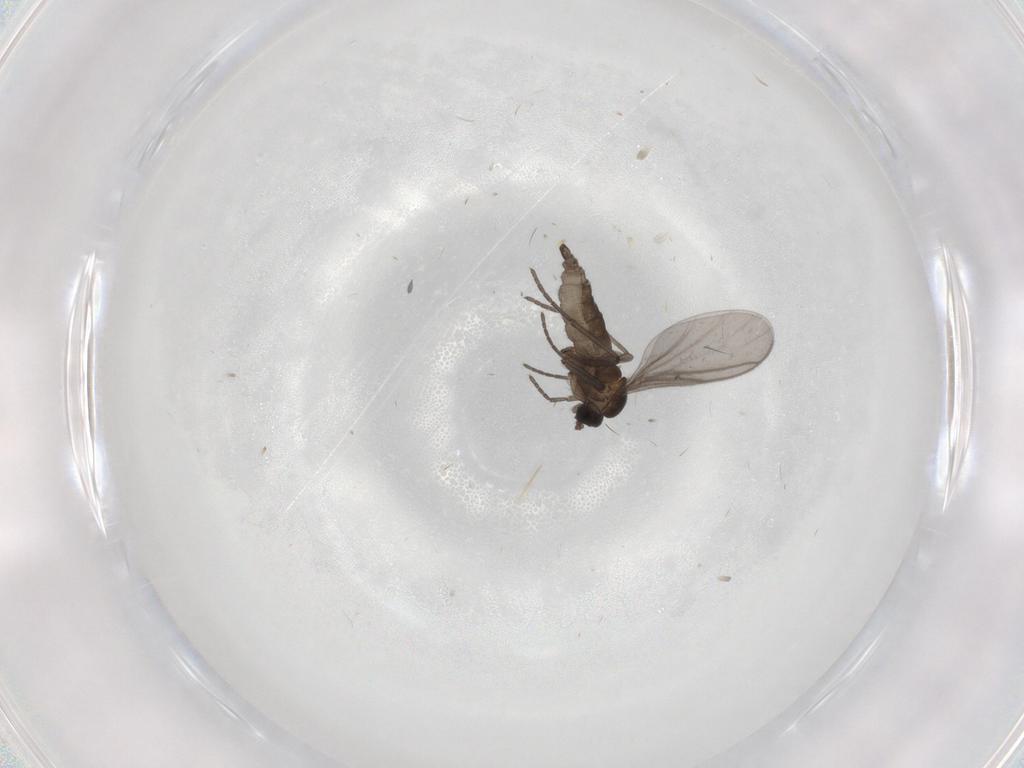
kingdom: Animalia
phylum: Arthropoda
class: Insecta
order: Diptera
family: Sciaridae
